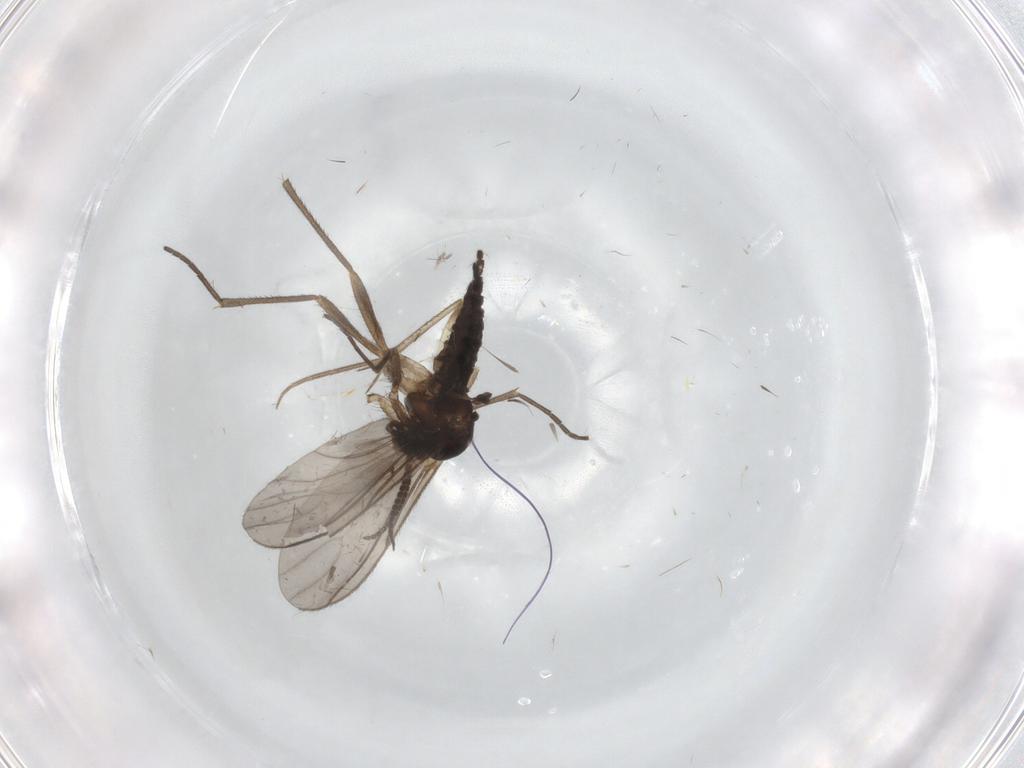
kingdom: Animalia
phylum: Arthropoda
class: Insecta
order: Diptera
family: Sciaridae
